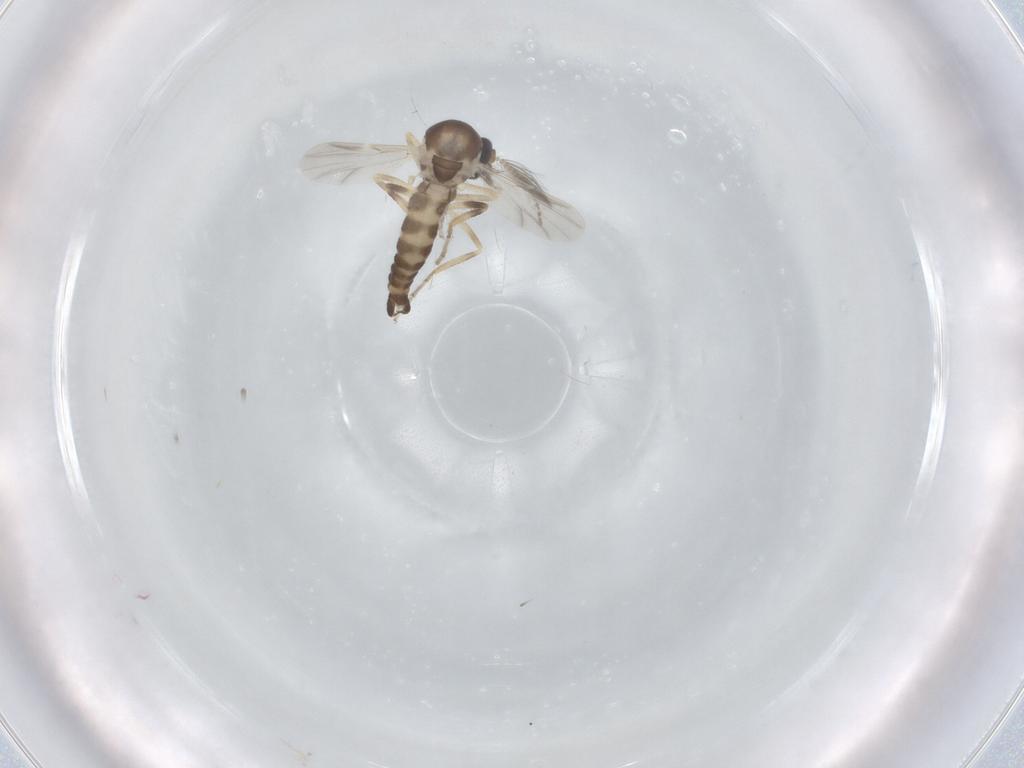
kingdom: Animalia
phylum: Arthropoda
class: Insecta
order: Diptera
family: Ceratopogonidae
